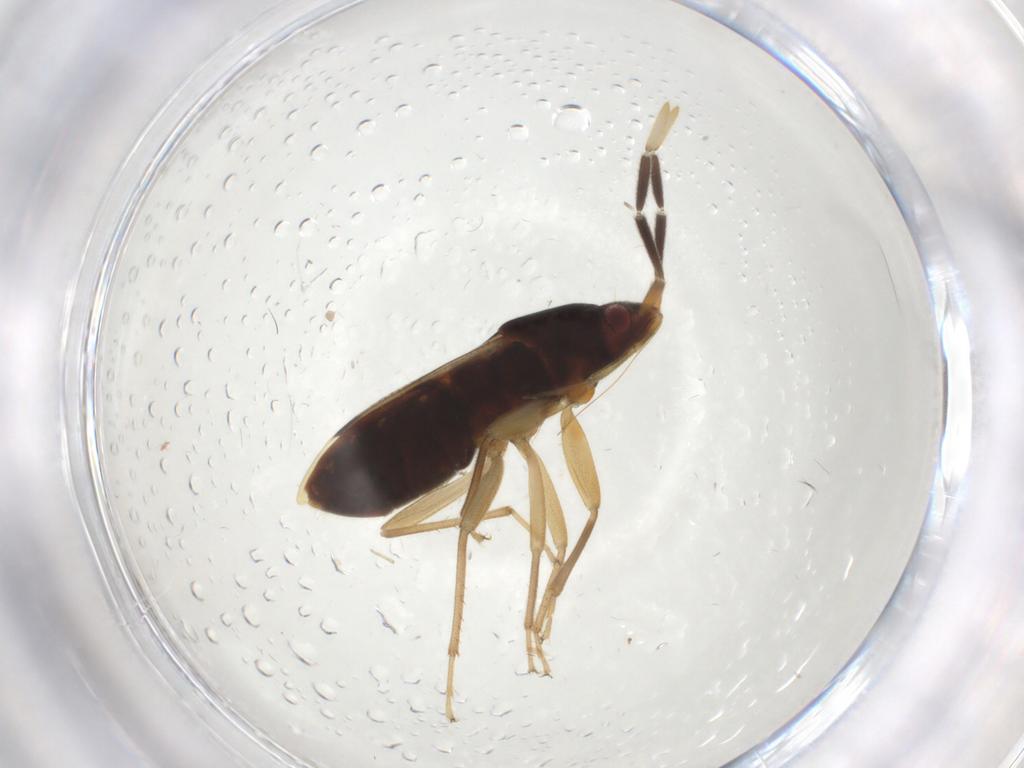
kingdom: Animalia
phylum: Arthropoda
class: Insecta
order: Hemiptera
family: Rhyparochromidae
